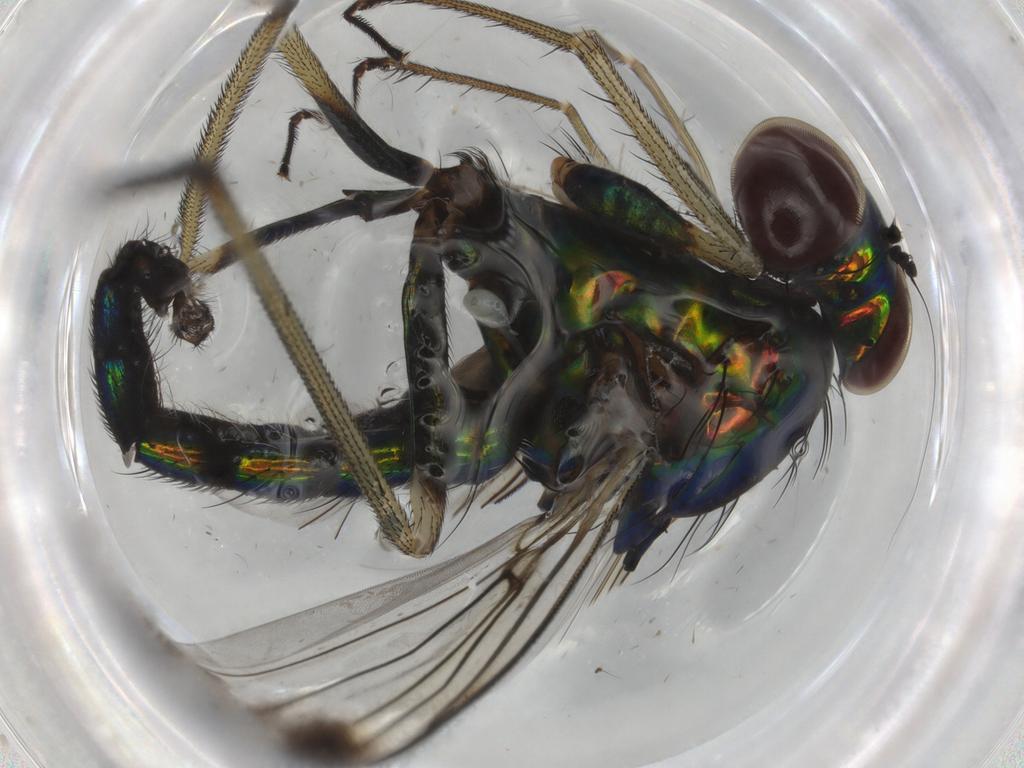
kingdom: Animalia
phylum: Arthropoda
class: Insecta
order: Diptera
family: Dolichopodidae
